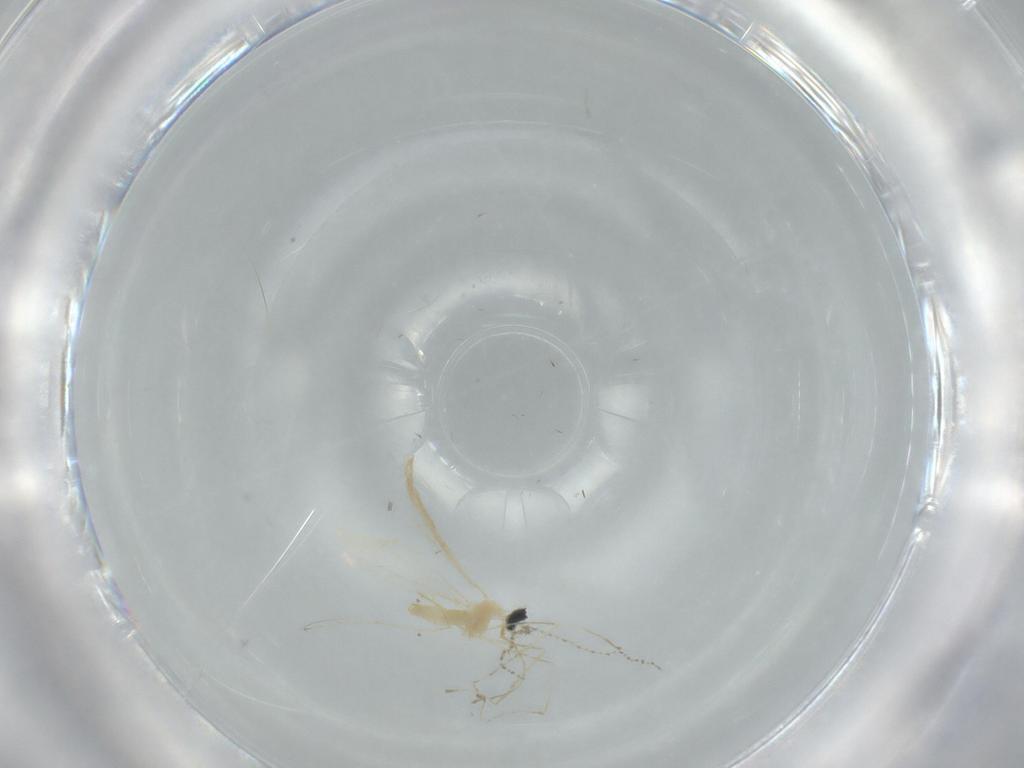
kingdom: Animalia
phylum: Arthropoda
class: Insecta
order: Diptera
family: Cecidomyiidae
